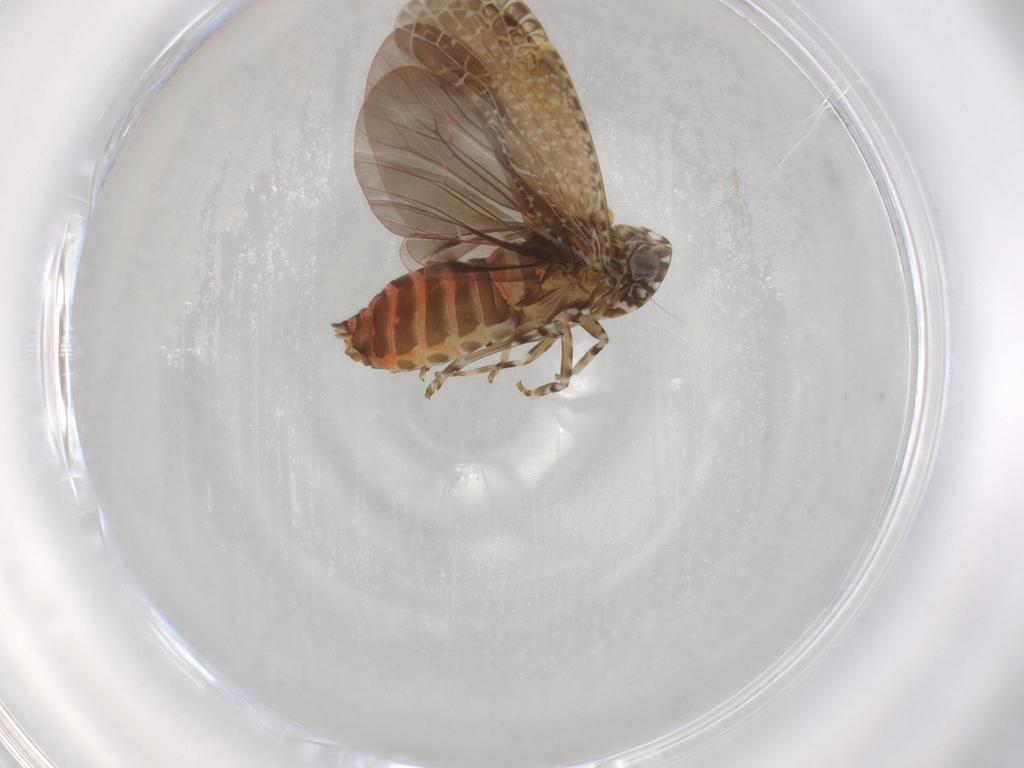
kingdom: Animalia
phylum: Arthropoda
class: Insecta
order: Hemiptera
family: Achilidae
